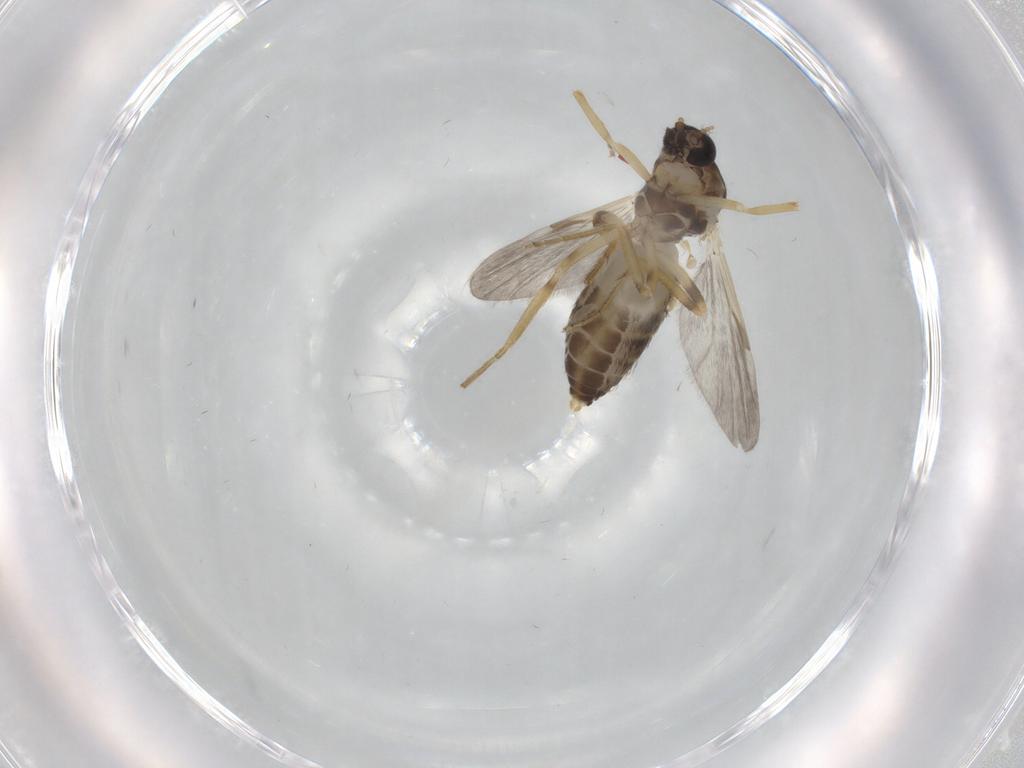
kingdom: Animalia
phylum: Arthropoda
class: Insecta
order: Diptera
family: Ceratopogonidae
